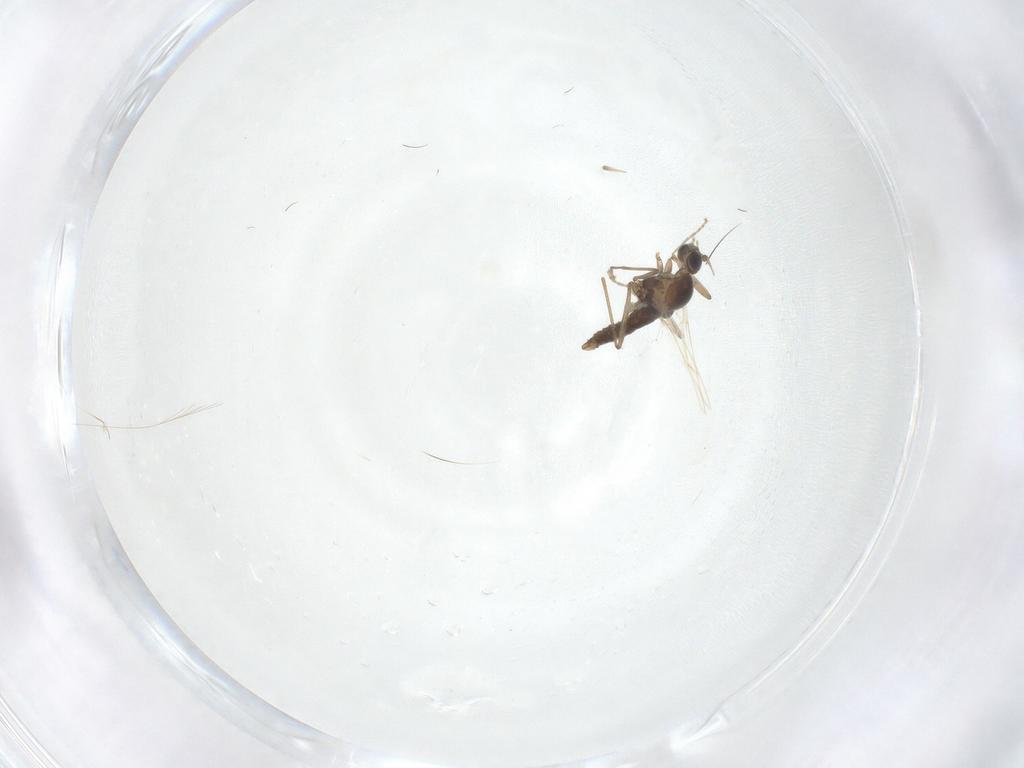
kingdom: Animalia
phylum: Arthropoda
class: Insecta
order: Diptera
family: Cecidomyiidae
